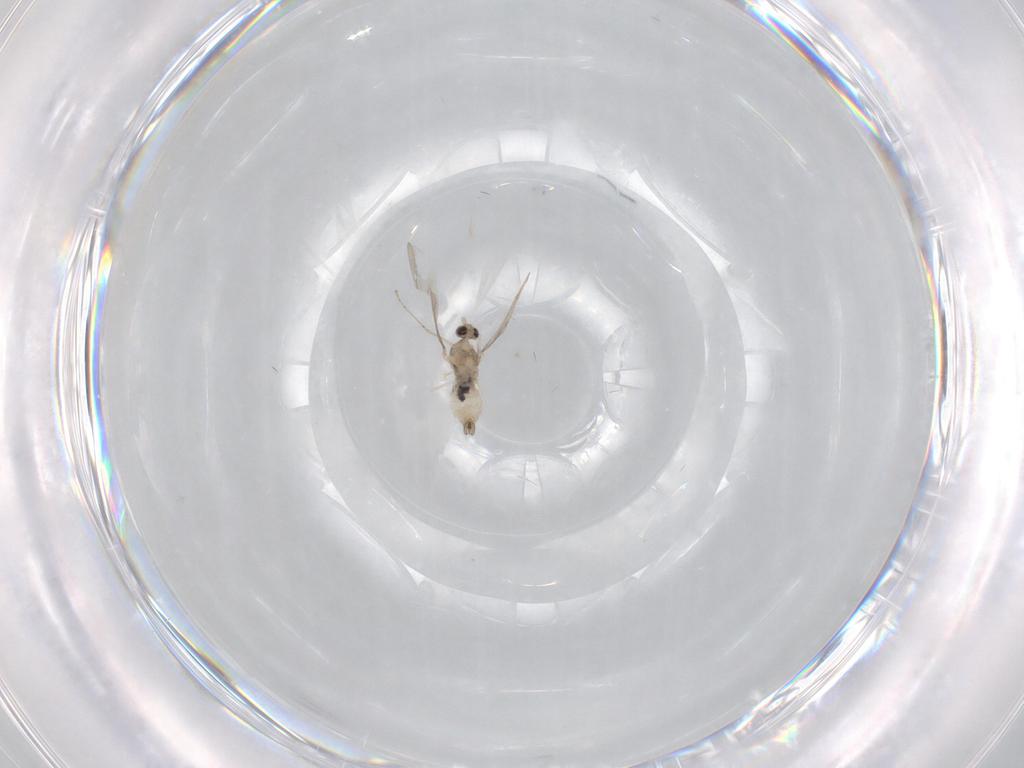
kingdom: Animalia
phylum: Arthropoda
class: Insecta
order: Diptera
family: Cecidomyiidae
